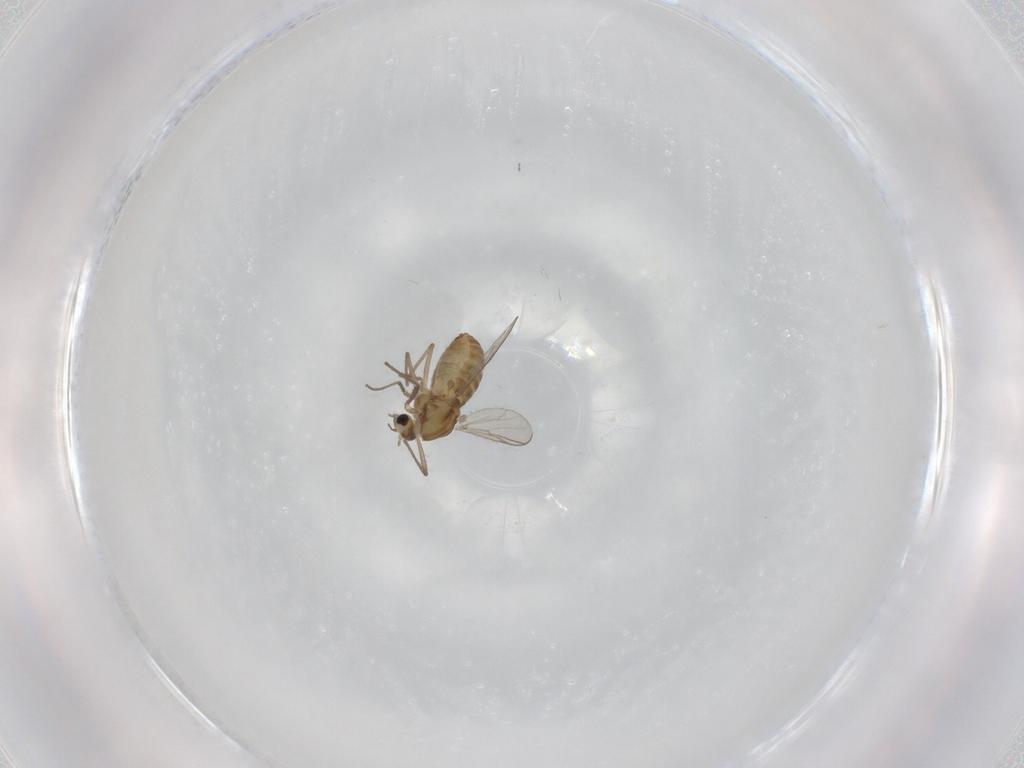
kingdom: Animalia
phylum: Arthropoda
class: Insecta
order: Diptera
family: Chironomidae
